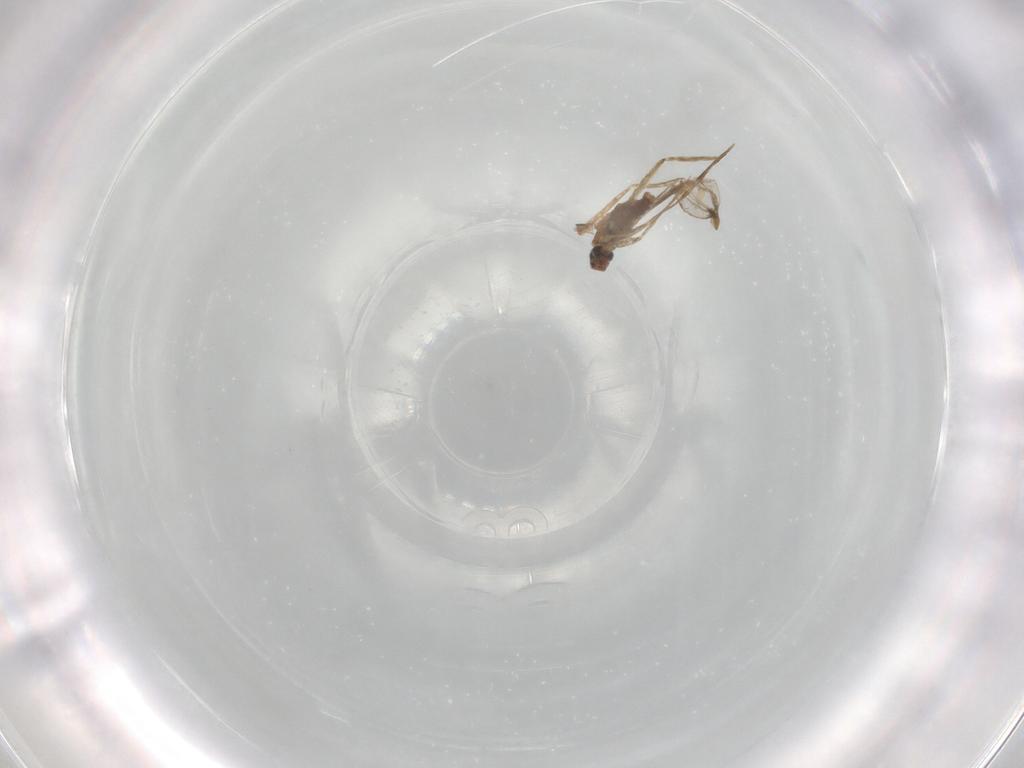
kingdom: Animalia
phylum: Arthropoda
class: Insecta
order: Diptera
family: Cecidomyiidae
